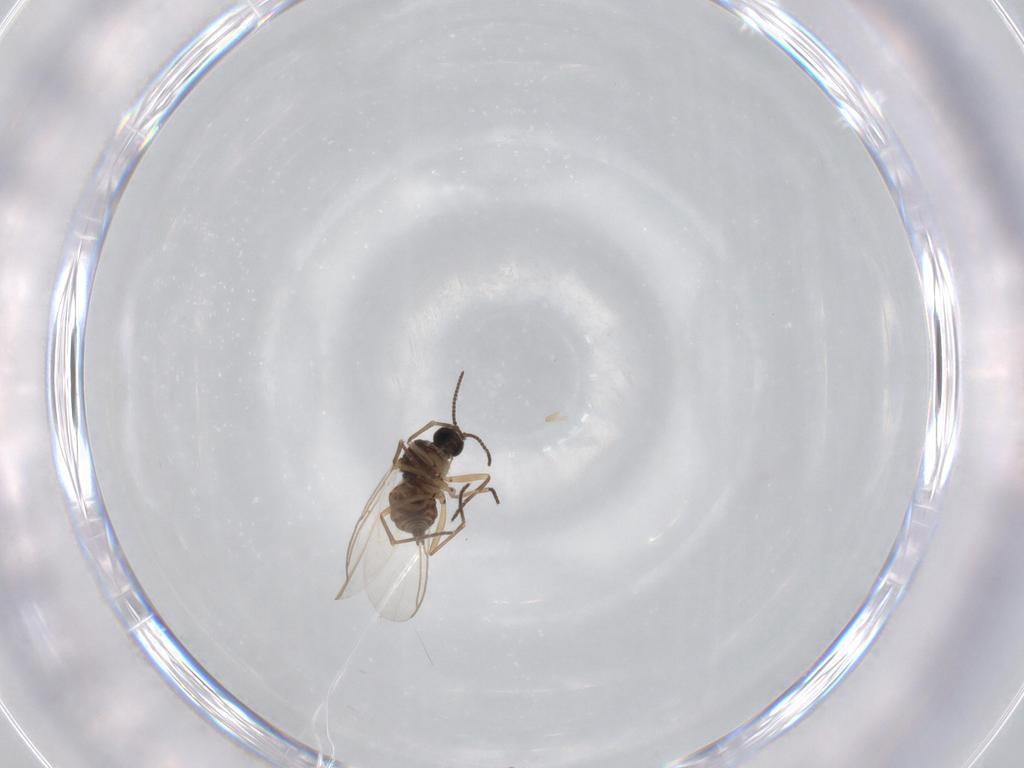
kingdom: Animalia
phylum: Arthropoda
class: Insecta
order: Diptera
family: Sciaridae
